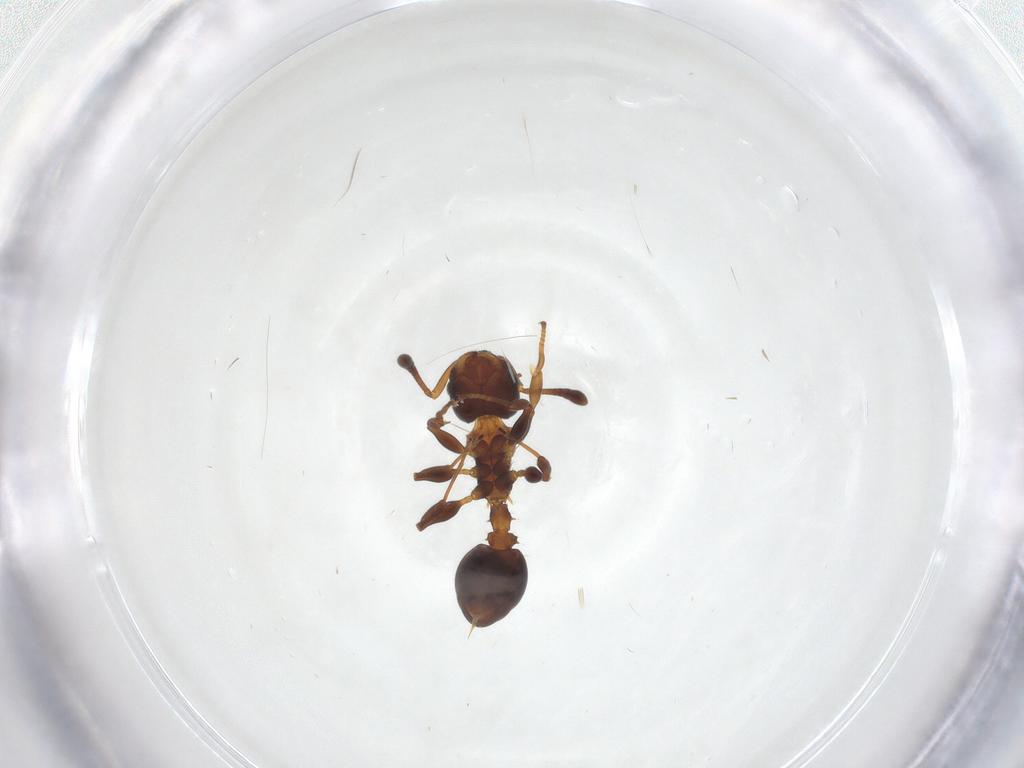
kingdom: Animalia
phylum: Arthropoda
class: Insecta
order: Hymenoptera
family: Formicidae
